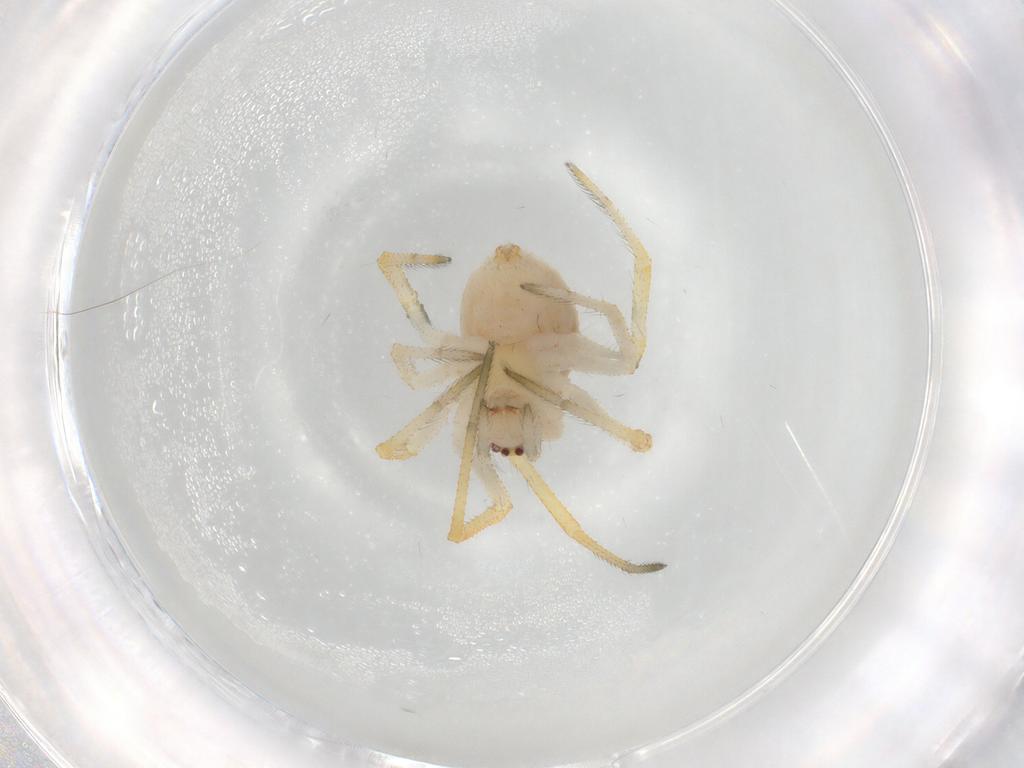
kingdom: Animalia
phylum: Arthropoda
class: Arachnida
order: Araneae
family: Theridiidae
